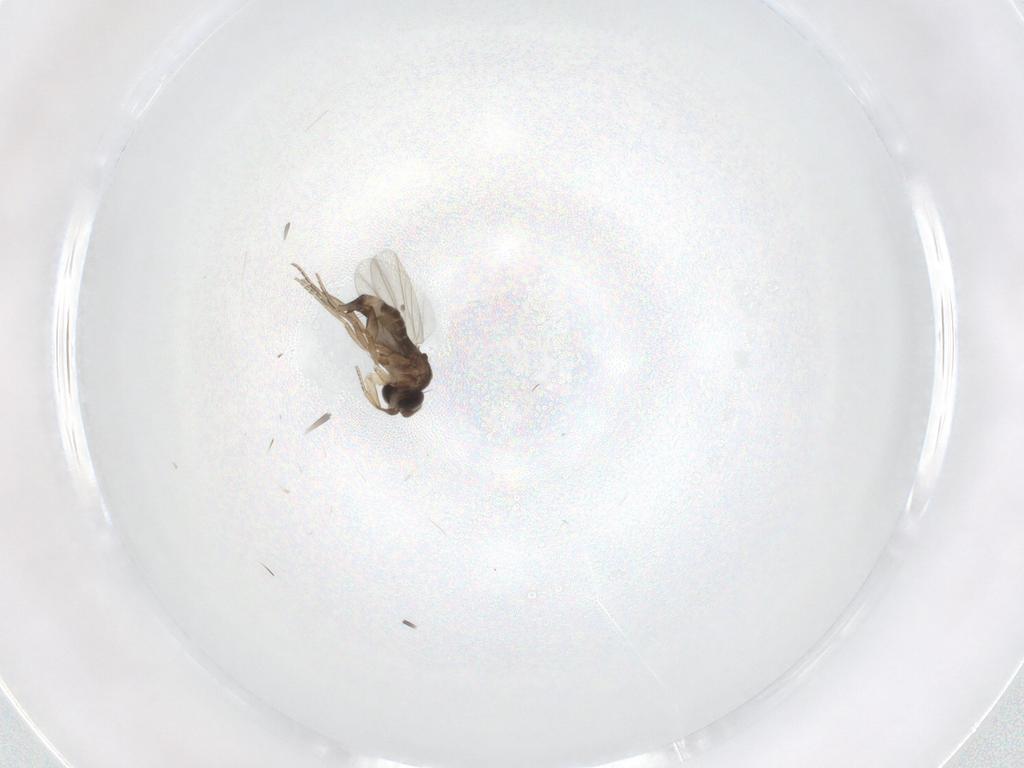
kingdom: Animalia
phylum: Arthropoda
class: Insecta
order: Diptera
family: Phoridae
